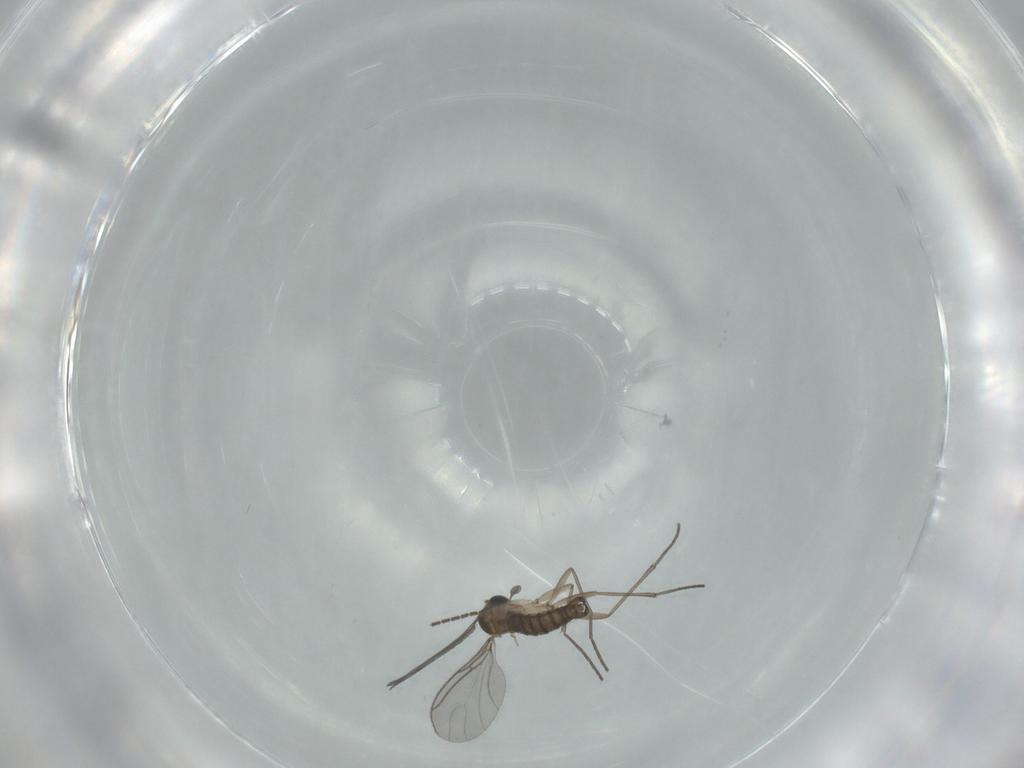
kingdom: Animalia
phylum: Arthropoda
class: Insecta
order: Diptera
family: Sciaridae
